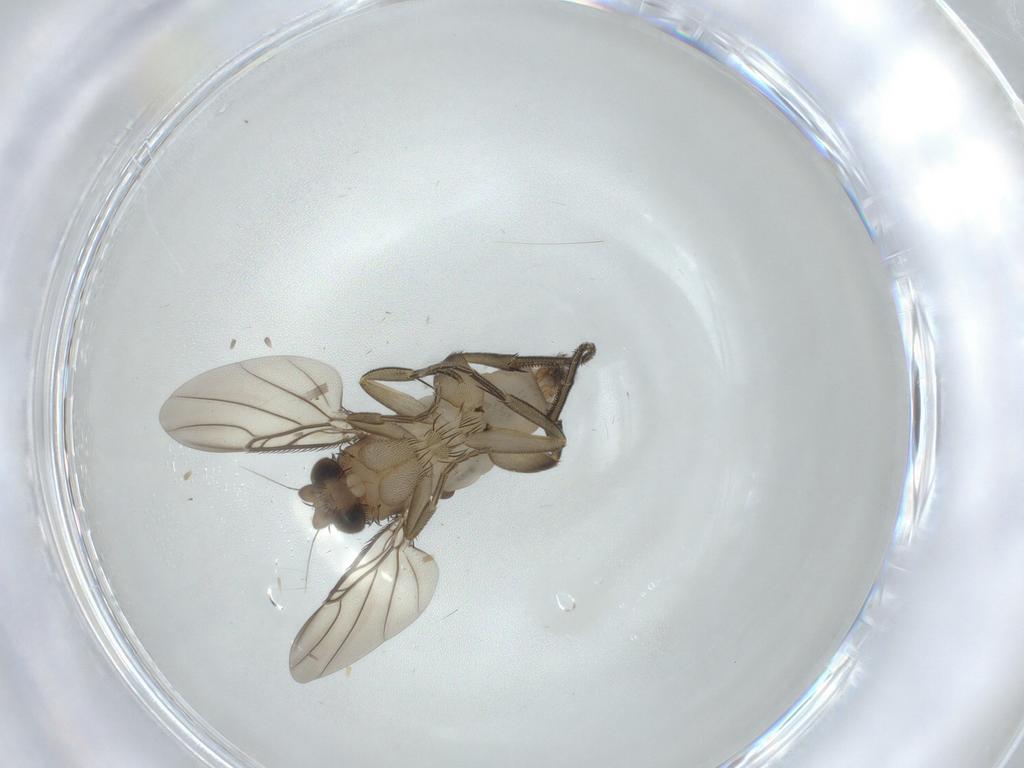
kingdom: Animalia
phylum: Arthropoda
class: Insecta
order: Diptera
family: Phoridae
